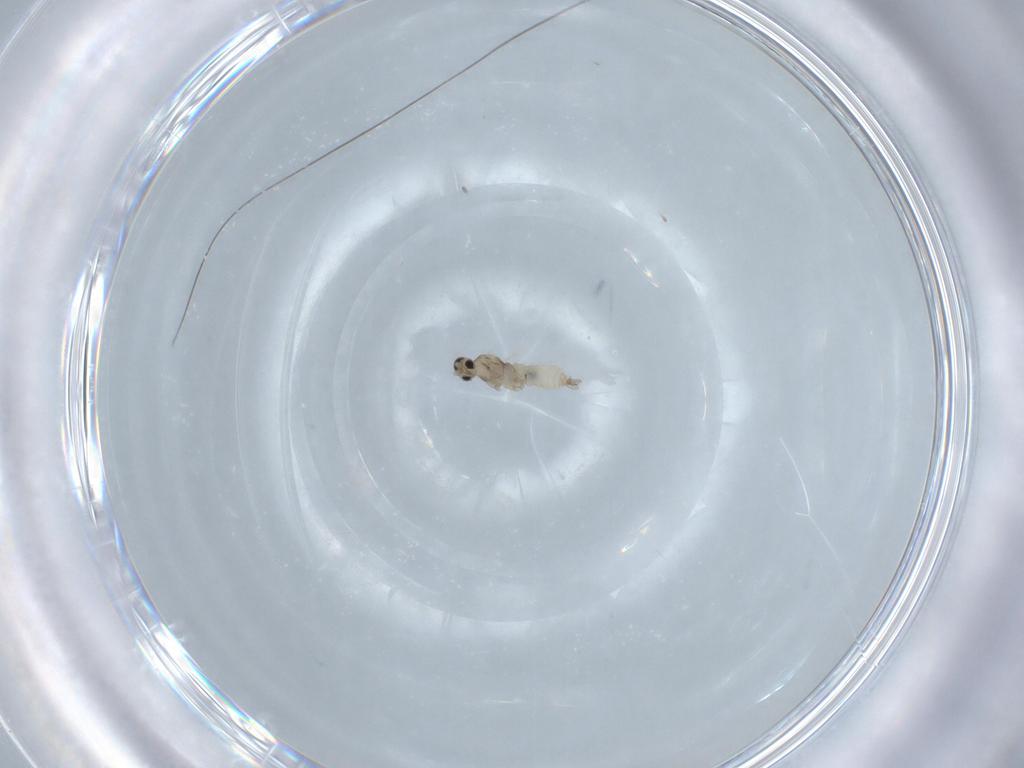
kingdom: Animalia
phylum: Arthropoda
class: Insecta
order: Diptera
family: Cecidomyiidae
